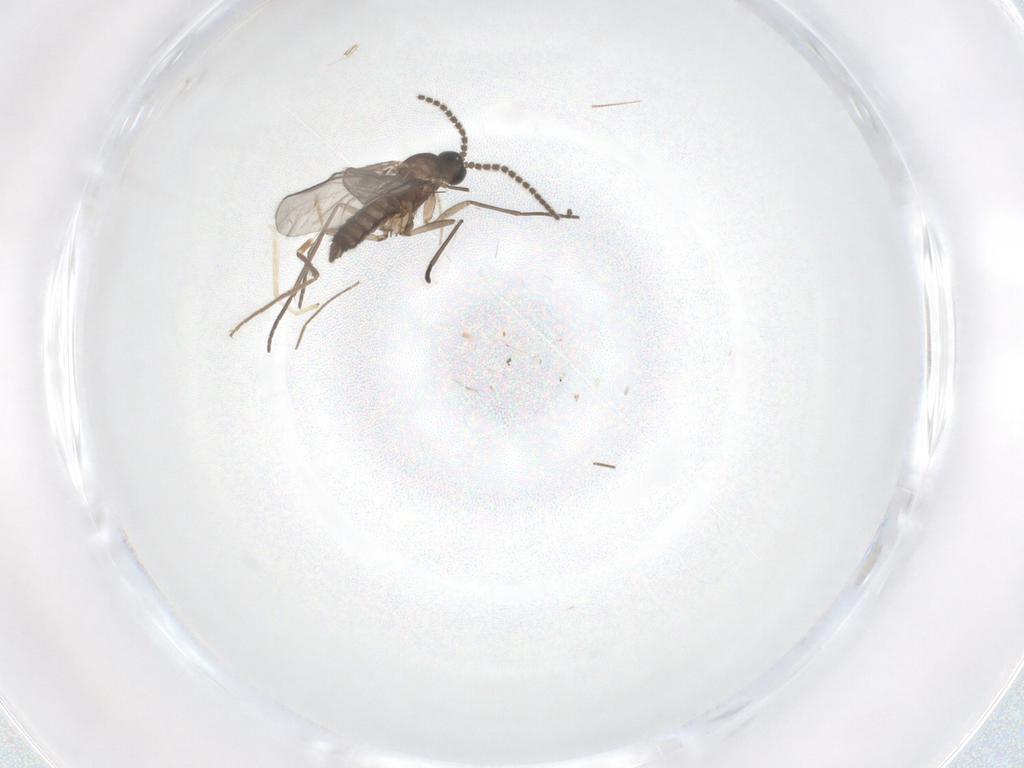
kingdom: Animalia
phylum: Arthropoda
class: Insecta
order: Diptera
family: Chironomidae
